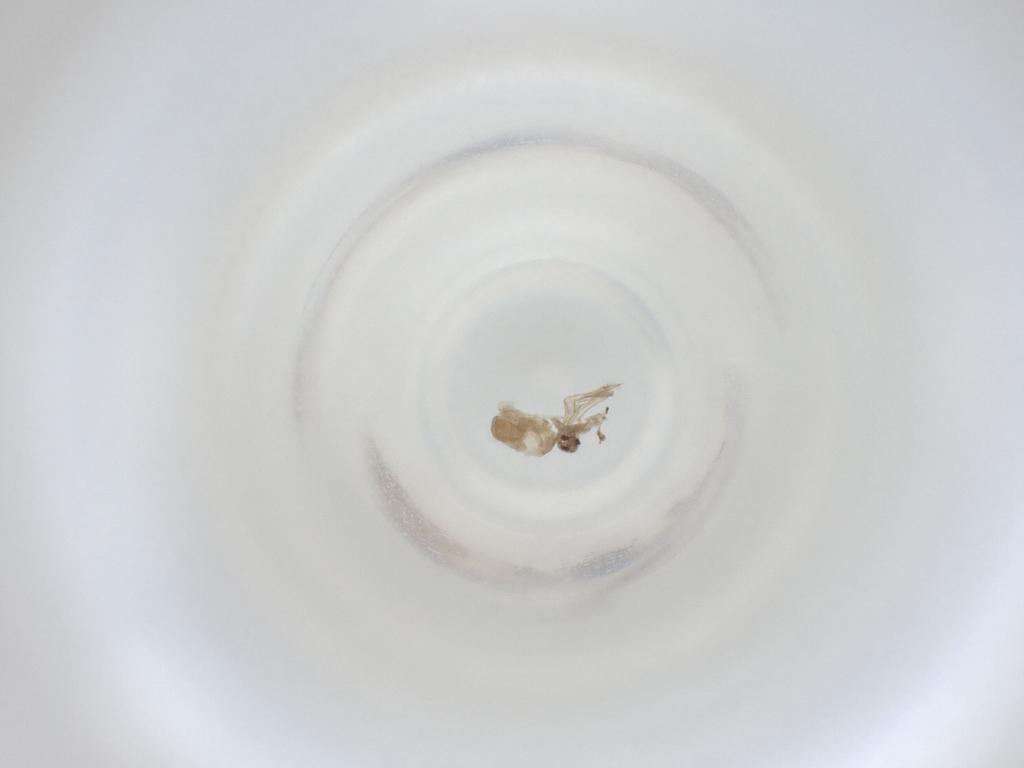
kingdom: Animalia
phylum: Arthropoda
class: Insecta
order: Diptera
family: Cecidomyiidae
